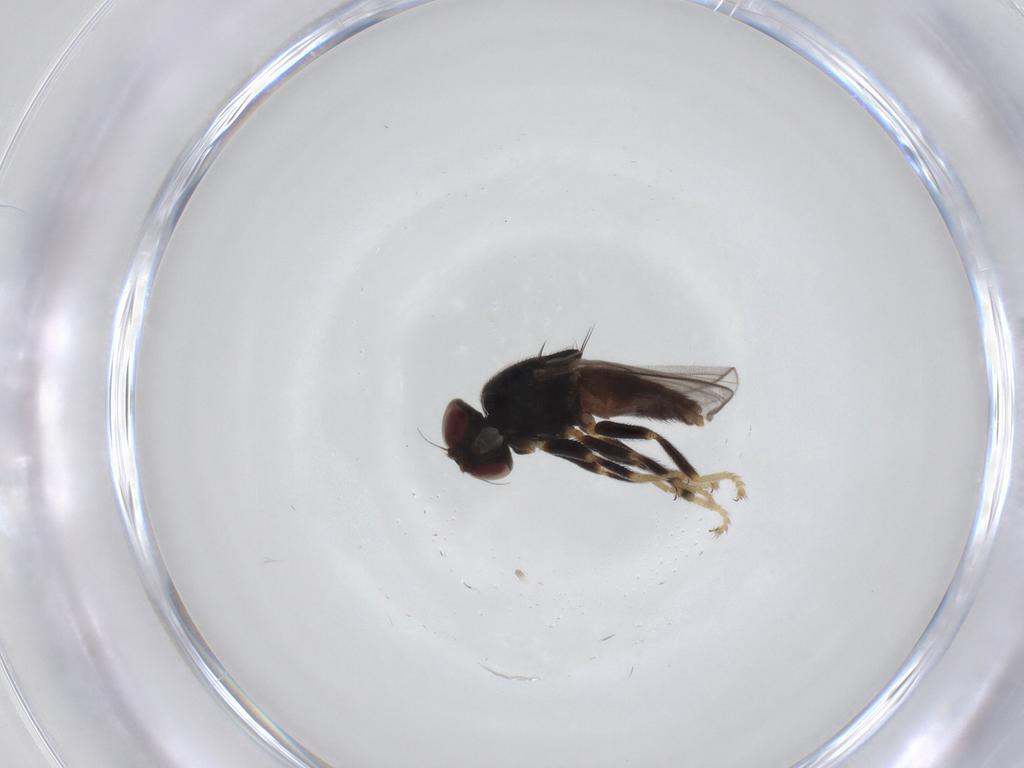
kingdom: Animalia
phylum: Arthropoda
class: Insecta
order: Diptera
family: Chloropidae
